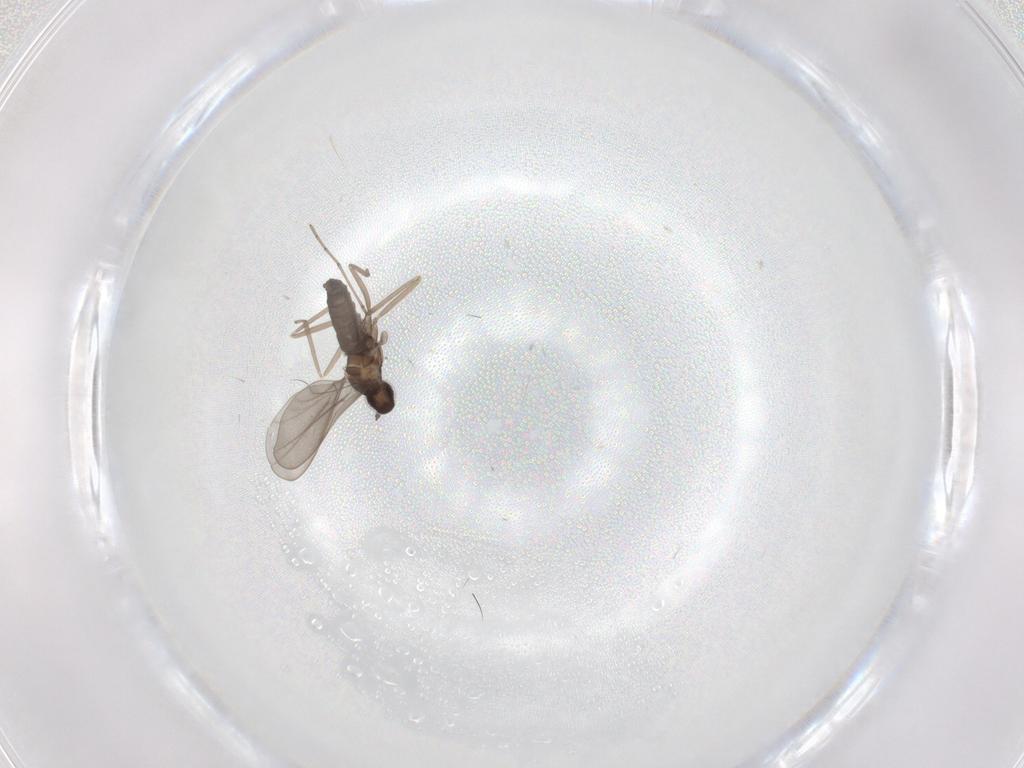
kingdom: Animalia
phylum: Arthropoda
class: Insecta
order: Diptera
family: Cecidomyiidae
